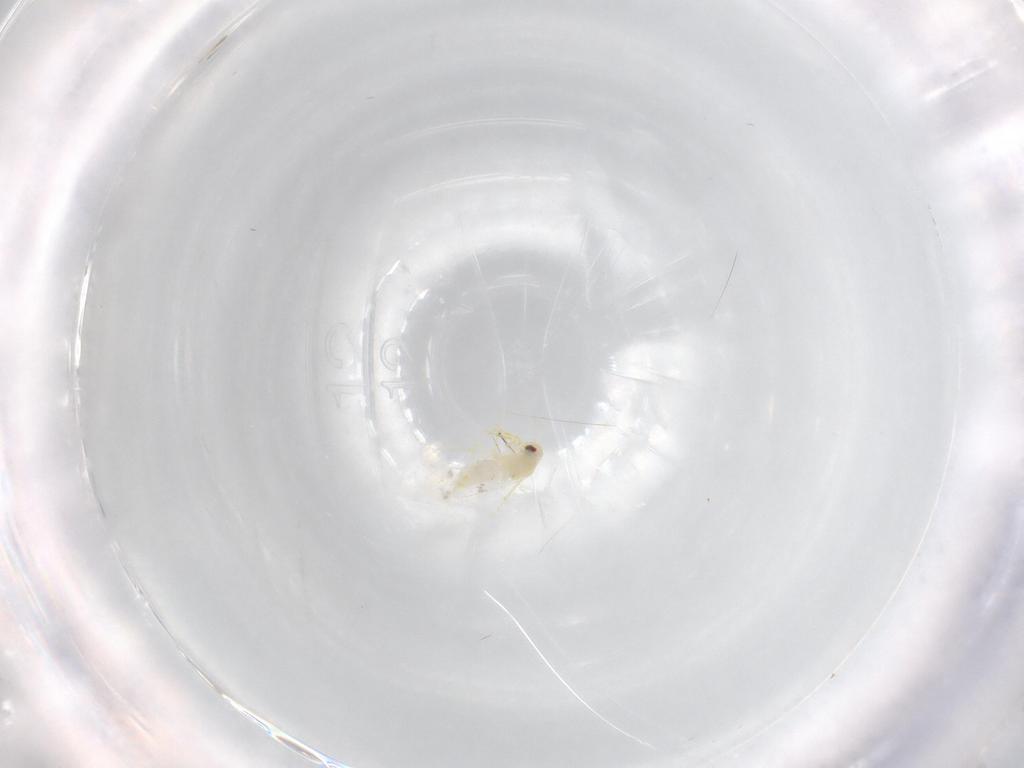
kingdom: Animalia
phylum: Arthropoda
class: Insecta
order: Hemiptera
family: Aleyrodidae
